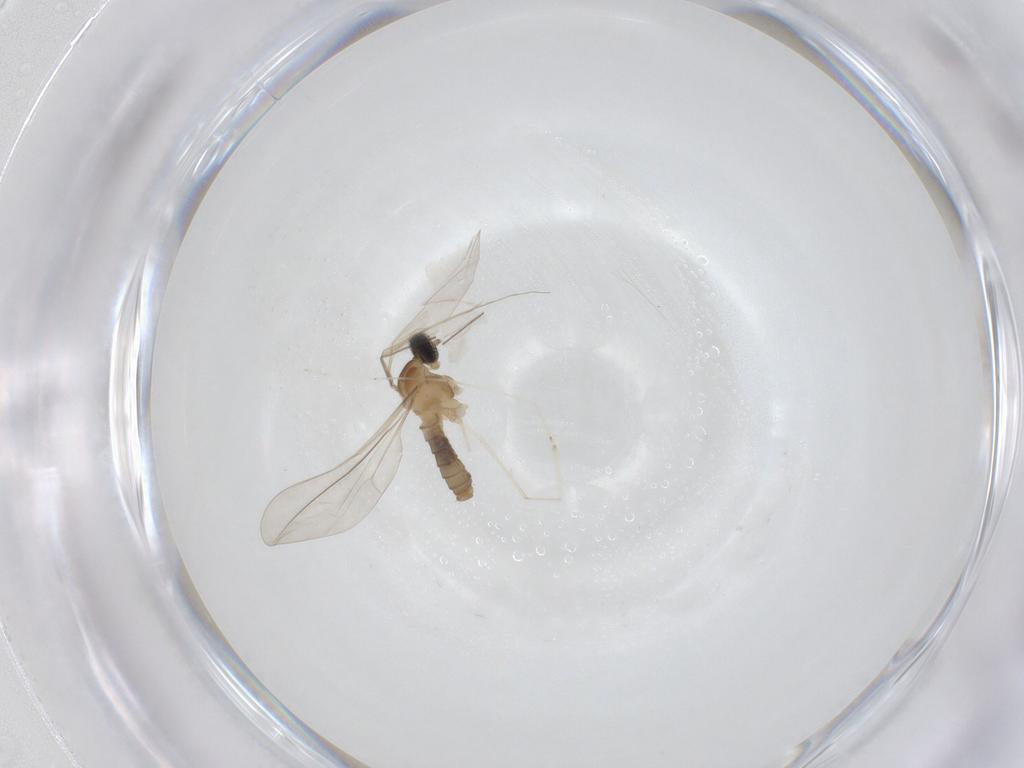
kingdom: Animalia
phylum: Arthropoda
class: Insecta
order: Diptera
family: Cecidomyiidae
